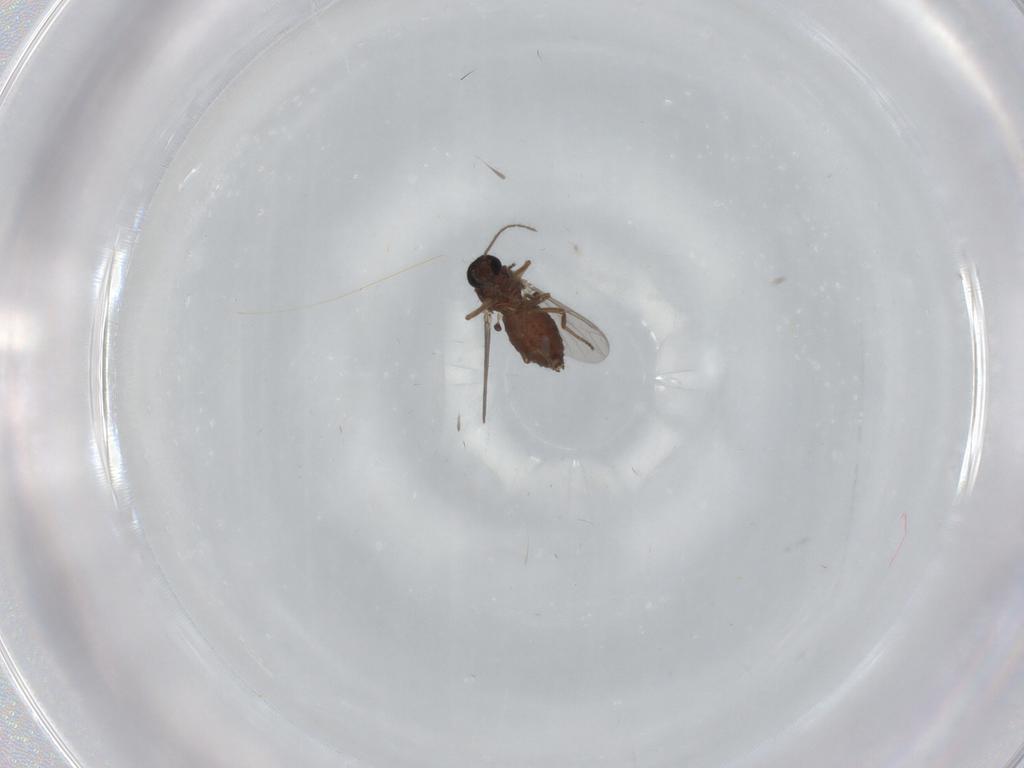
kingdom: Animalia
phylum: Arthropoda
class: Insecta
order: Diptera
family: Ceratopogonidae
